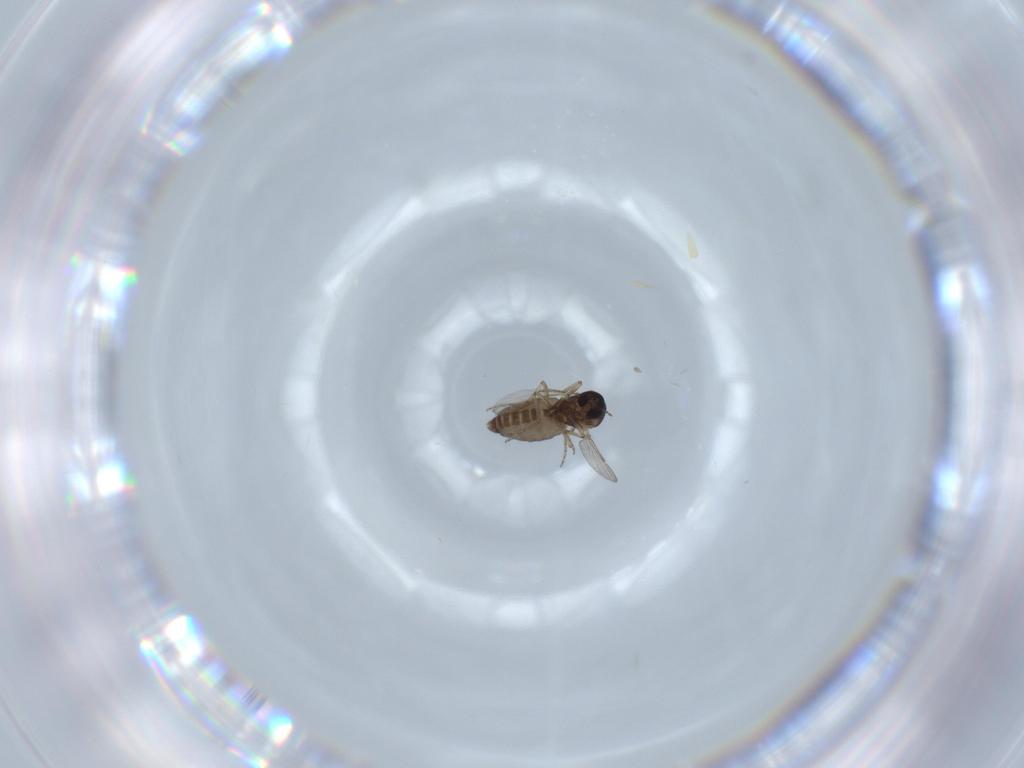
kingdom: Animalia
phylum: Arthropoda
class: Insecta
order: Diptera
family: Ceratopogonidae
